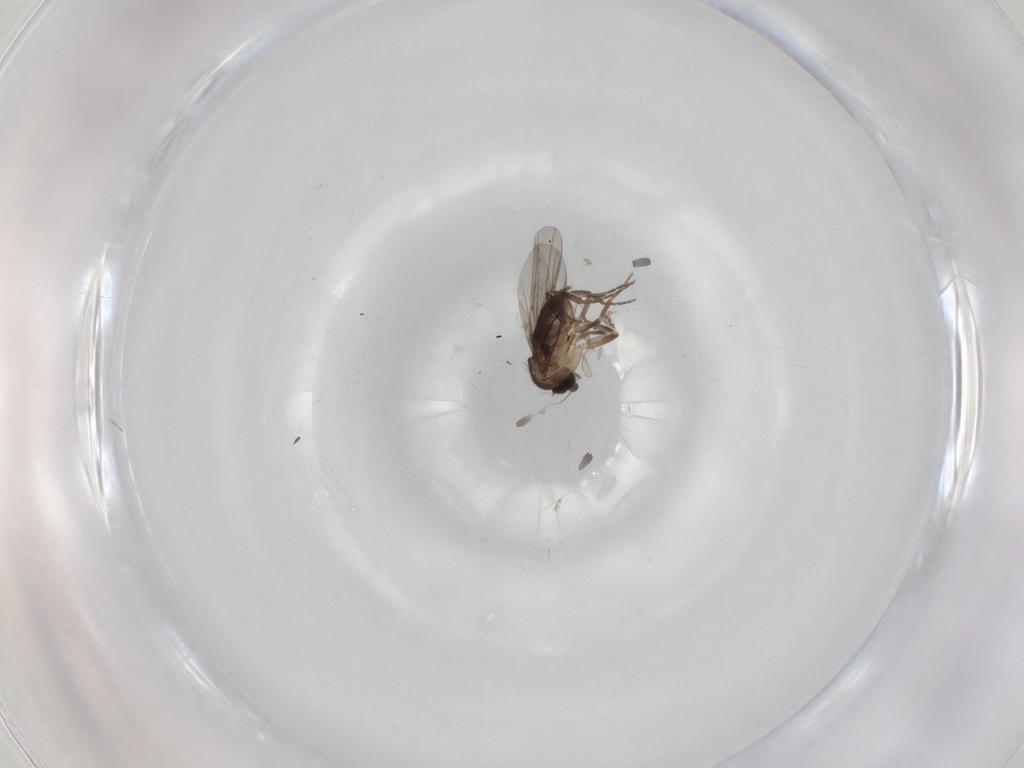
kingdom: Animalia
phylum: Arthropoda
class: Insecta
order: Diptera
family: Phoridae
